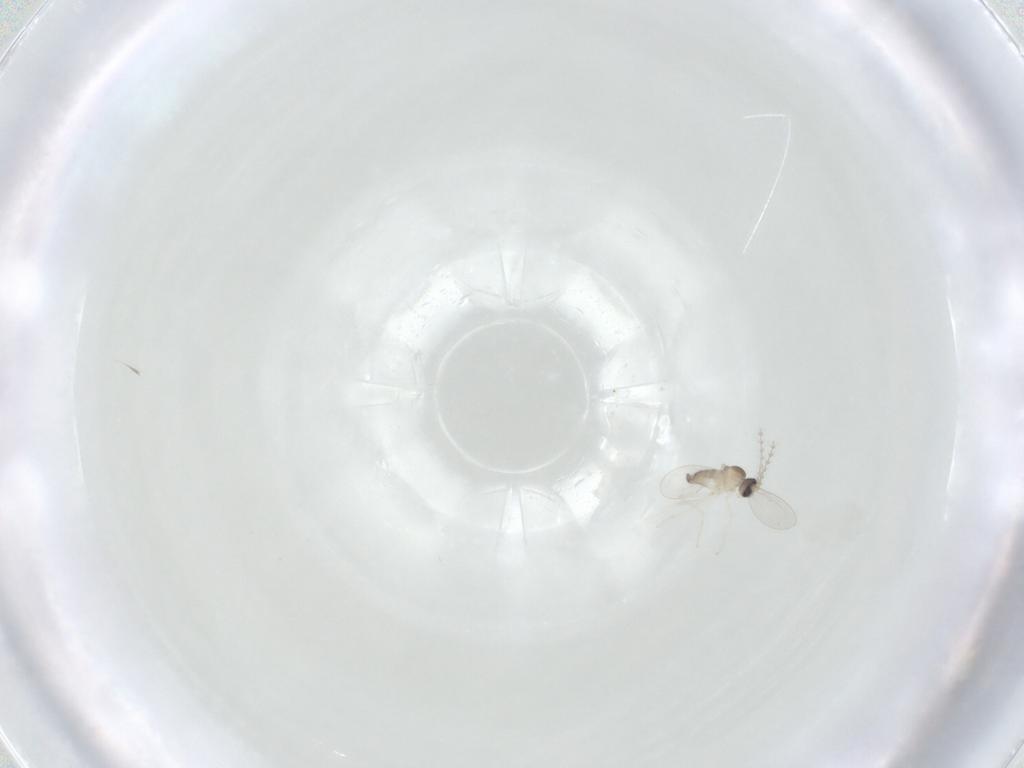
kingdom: Animalia
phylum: Arthropoda
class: Insecta
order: Diptera
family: Cecidomyiidae
